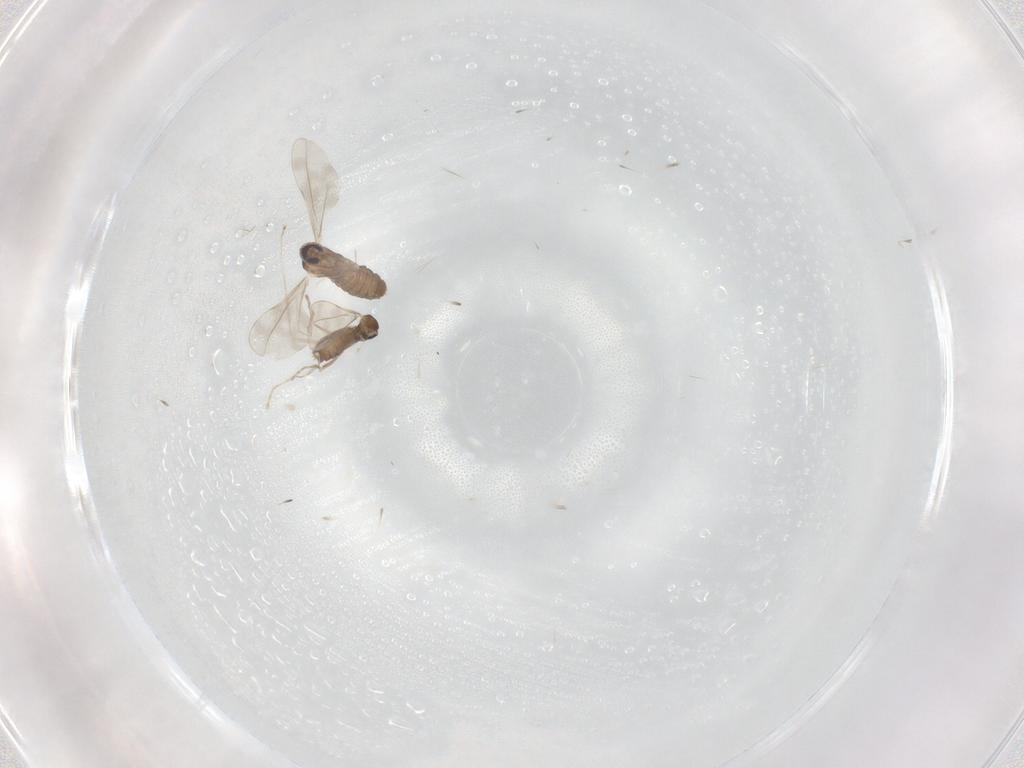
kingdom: Animalia
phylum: Arthropoda
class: Insecta
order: Diptera
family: Cecidomyiidae
